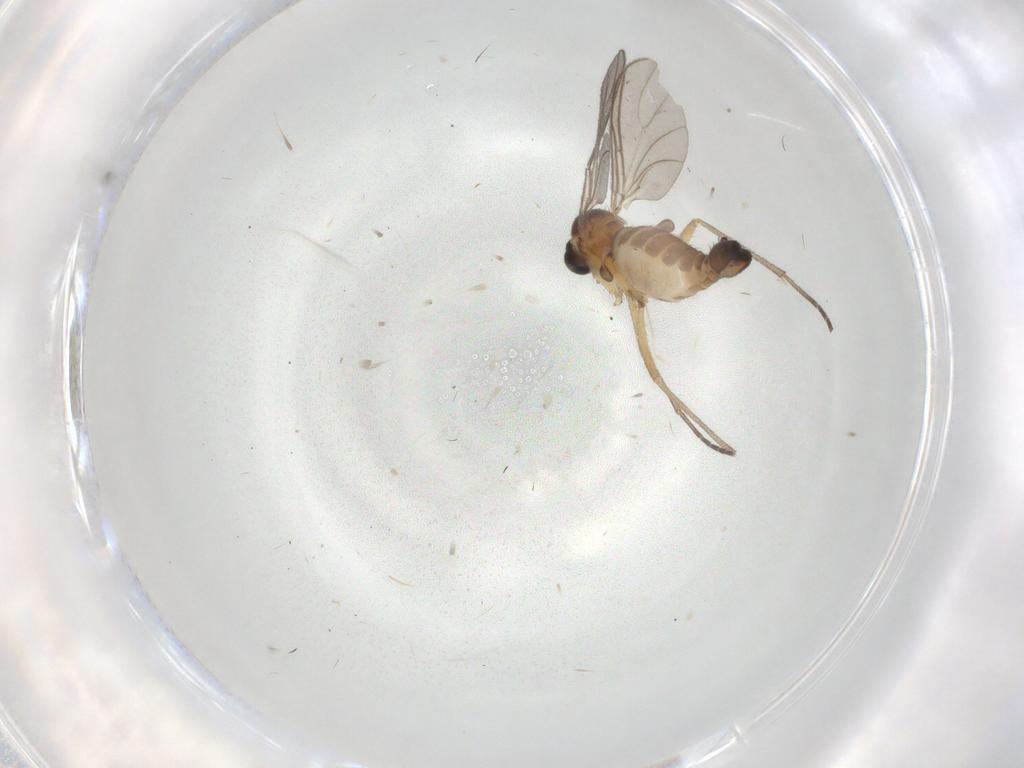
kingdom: Animalia
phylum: Arthropoda
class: Insecta
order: Diptera
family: Sciaridae
